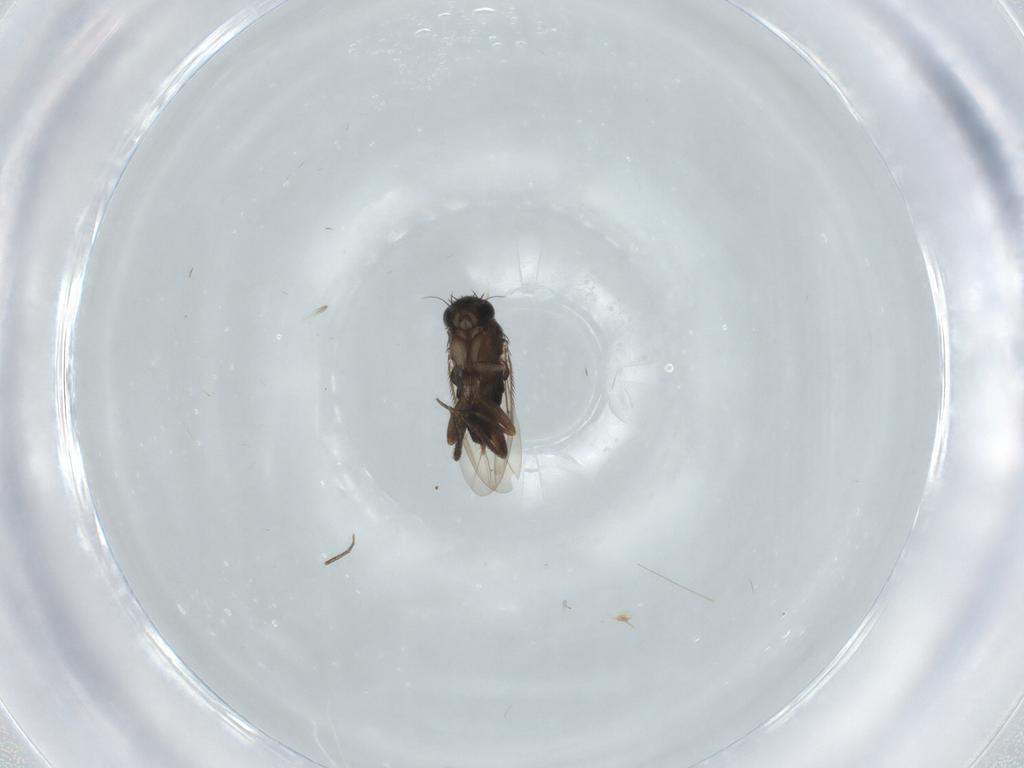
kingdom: Animalia
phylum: Arthropoda
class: Insecta
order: Diptera
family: Phoridae
